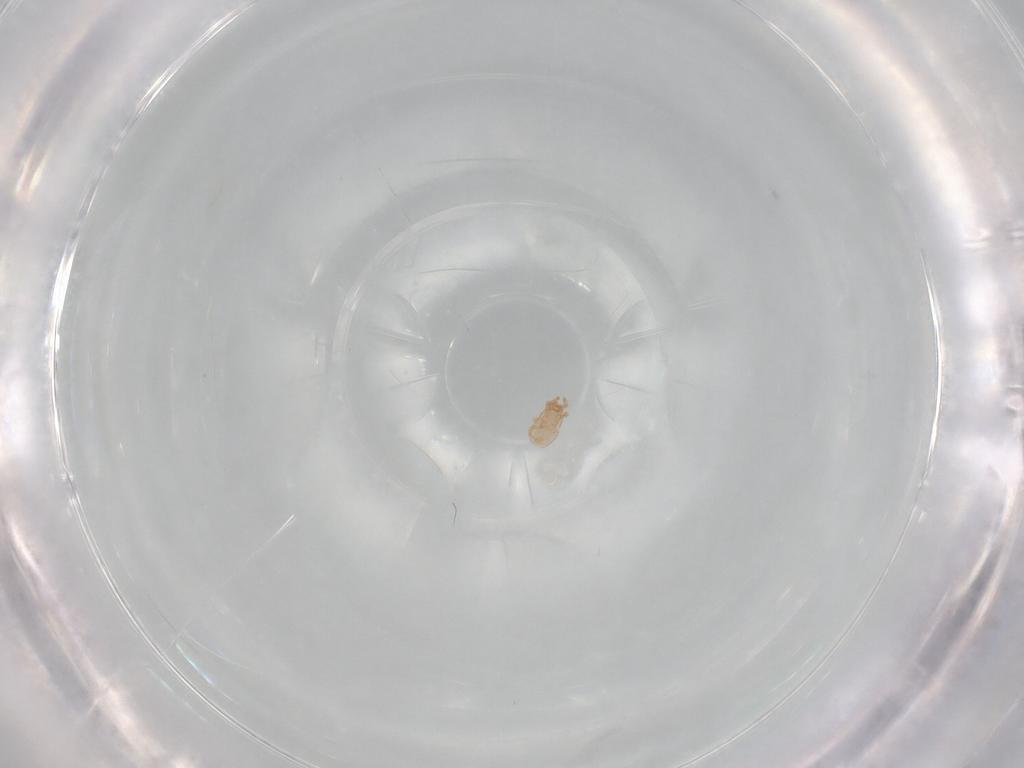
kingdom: Animalia
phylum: Arthropoda
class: Arachnida
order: Mesostigmata
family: Ascidae
